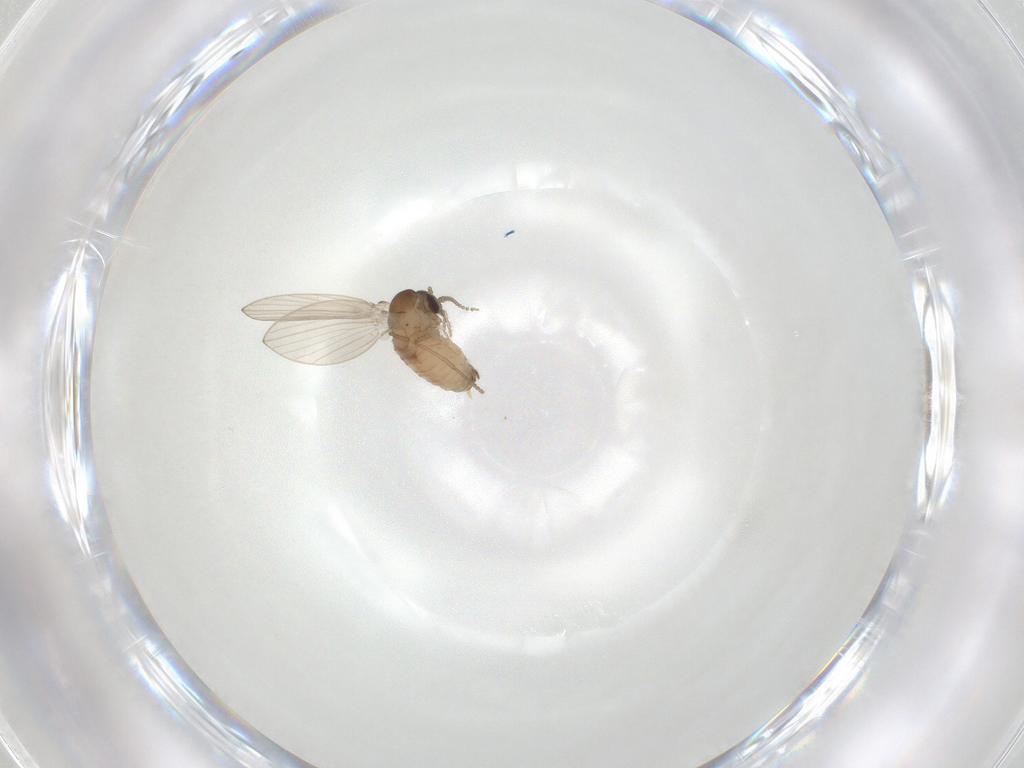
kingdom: Animalia
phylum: Arthropoda
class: Insecta
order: Diptera
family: Psychodidae
